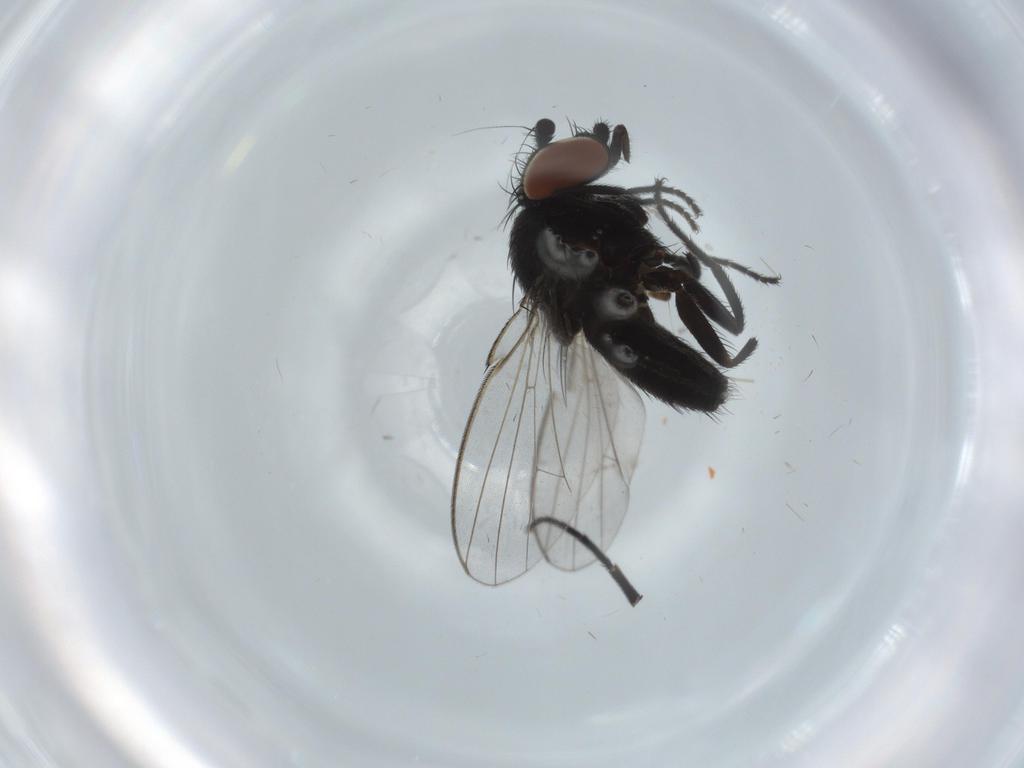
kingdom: Animalia
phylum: Arthropoda
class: Insecta
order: Diptera
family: Milichiidae
